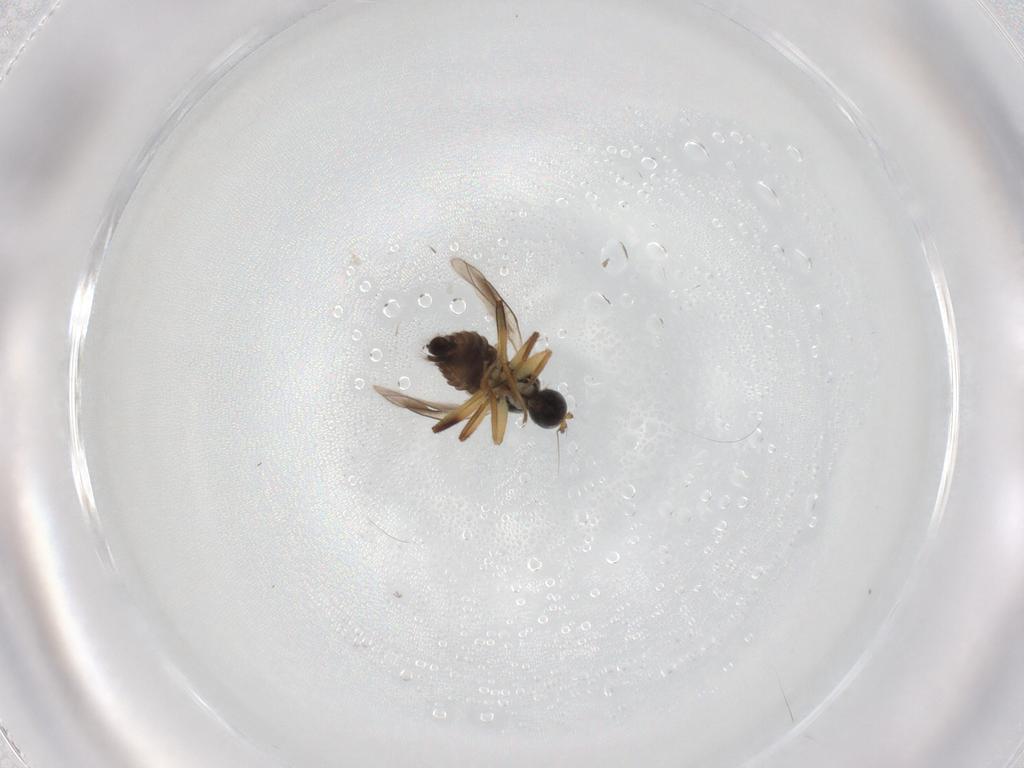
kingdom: Animalia
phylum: Arthropoda
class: Insecta
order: Diptera
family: Hybotidae
